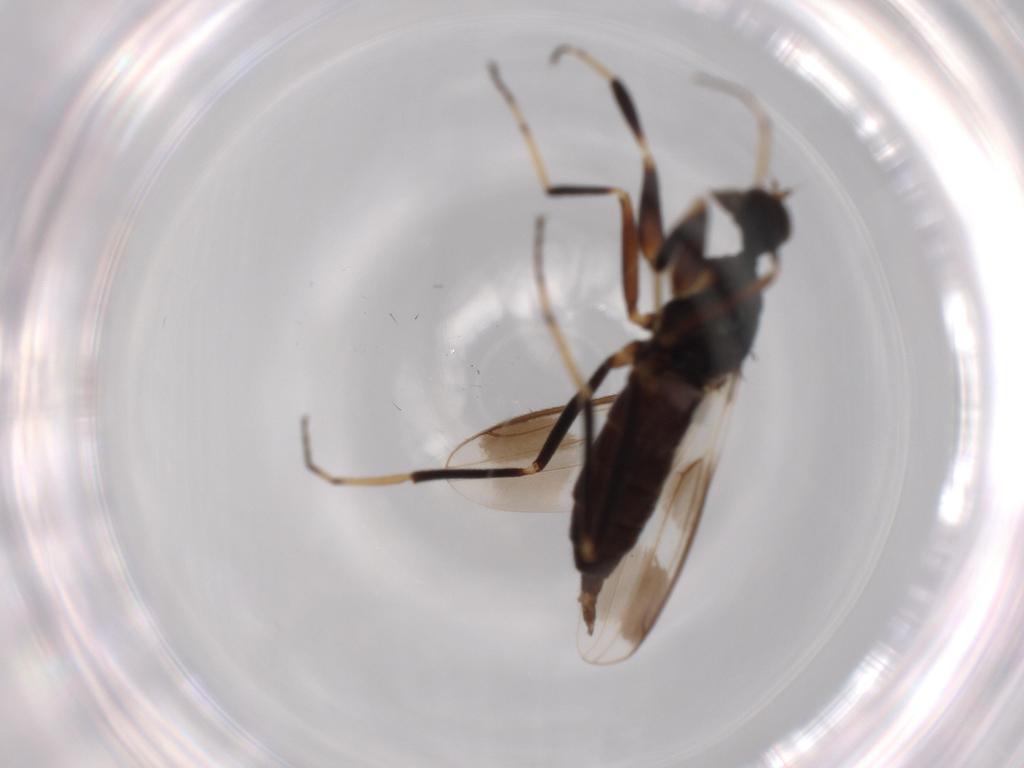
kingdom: Animalia
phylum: Arthropoda
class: Insecta
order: Diptera
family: Hybotidae
